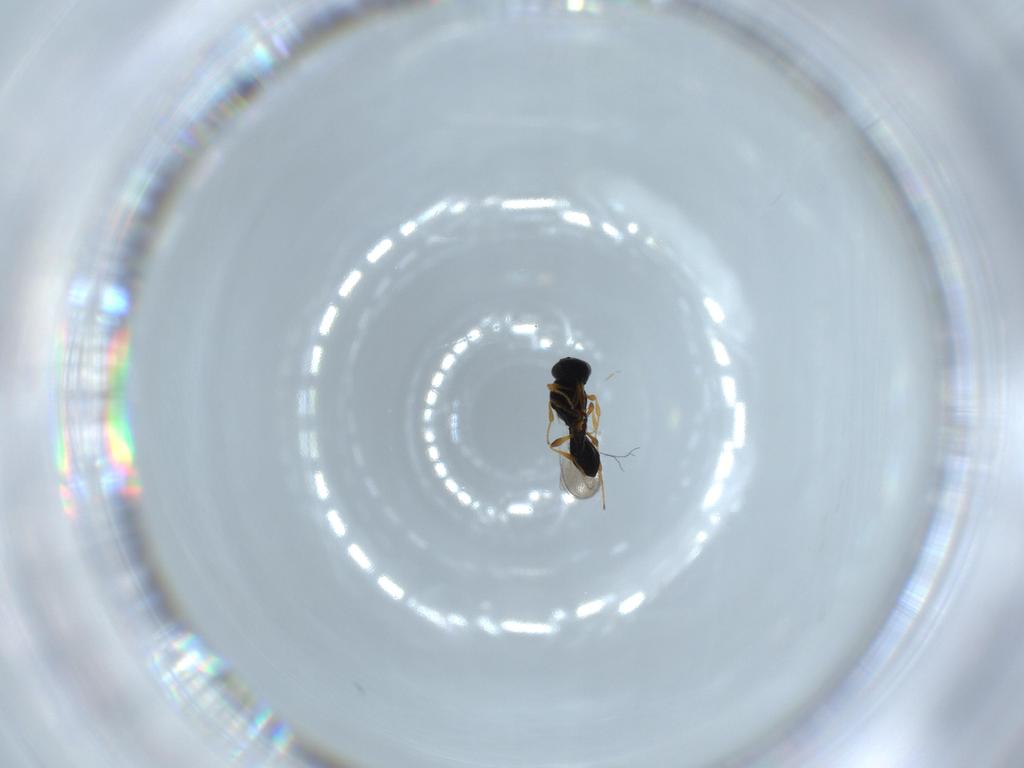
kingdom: Animalia
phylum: Arthropoda
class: Insecta
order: Hymenoptera
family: Platygastridae
